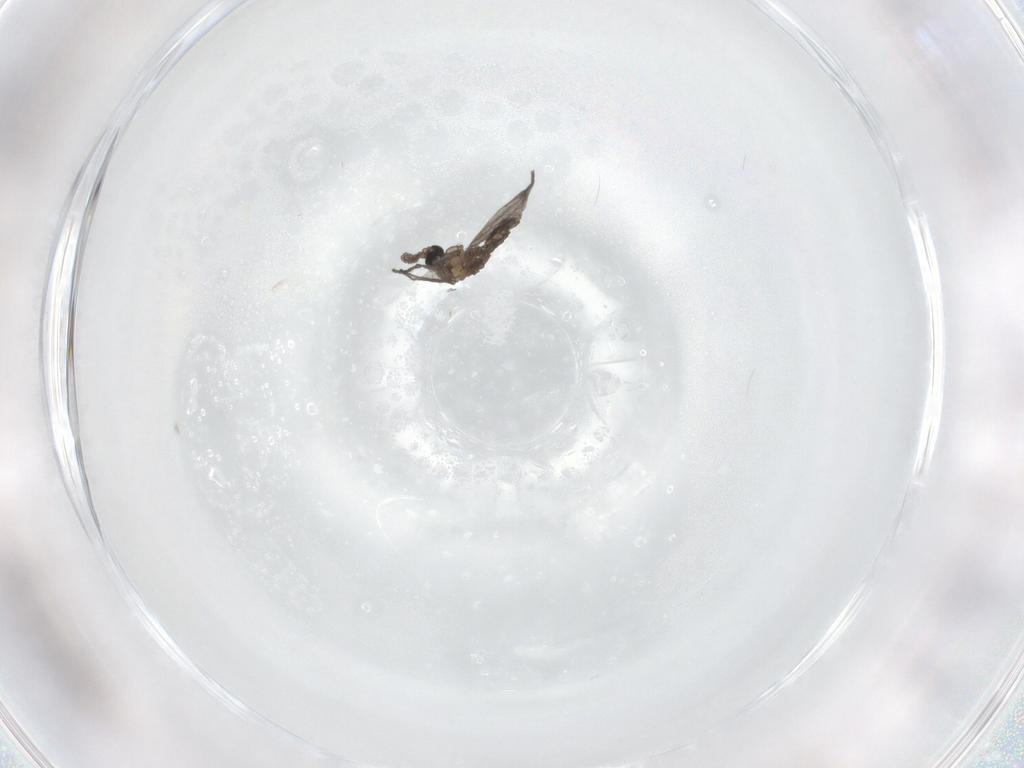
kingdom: Animalia
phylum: Arthropoda
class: Insecta
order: Diptera
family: Sciaridae
